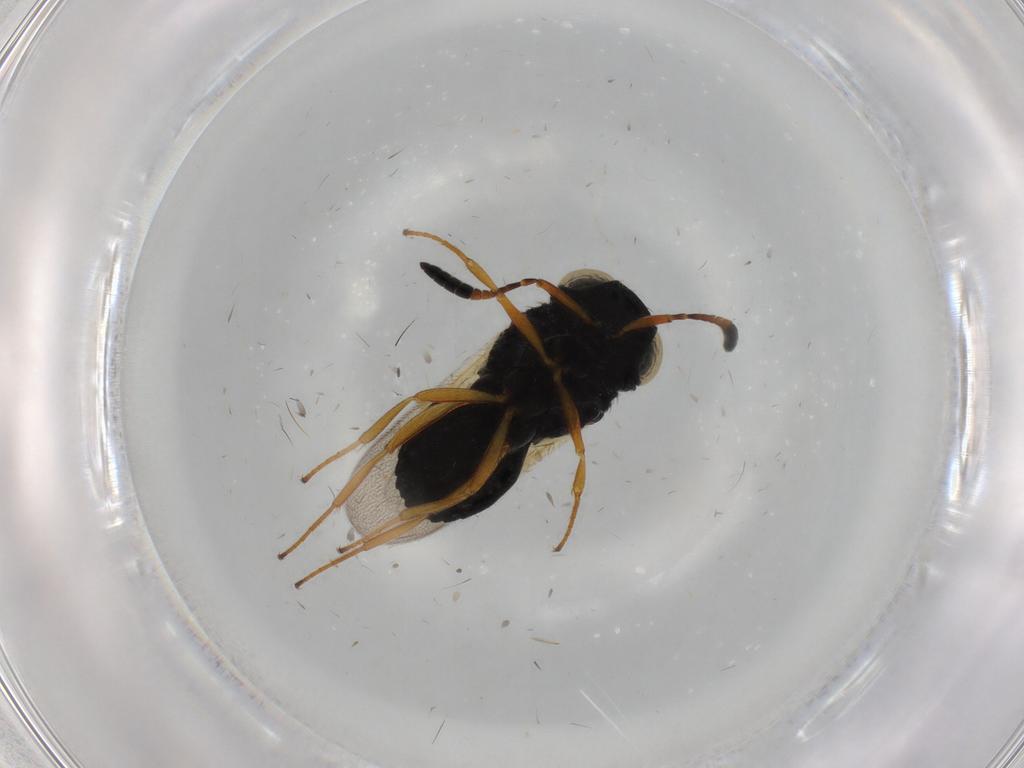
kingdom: Animalia
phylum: Arthropoda
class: Insecta
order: Hymenoptera
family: Scelionidae
